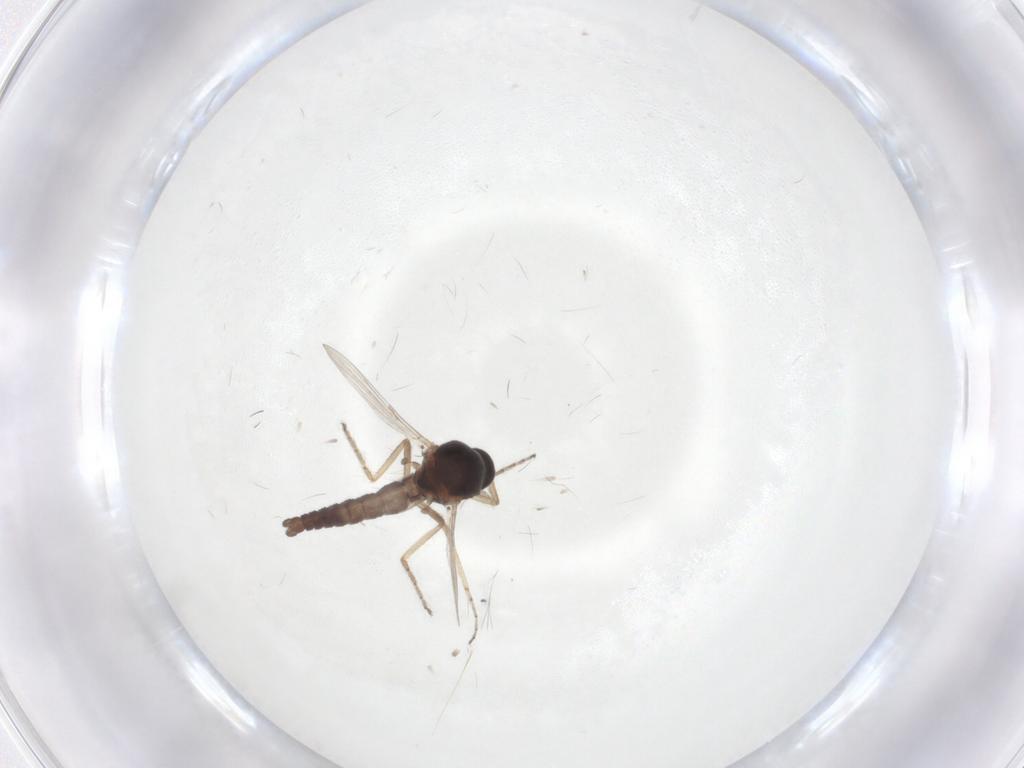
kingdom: Animalia
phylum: Arthropoda
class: Insecta
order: Diptera
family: Ceratopogonidae
